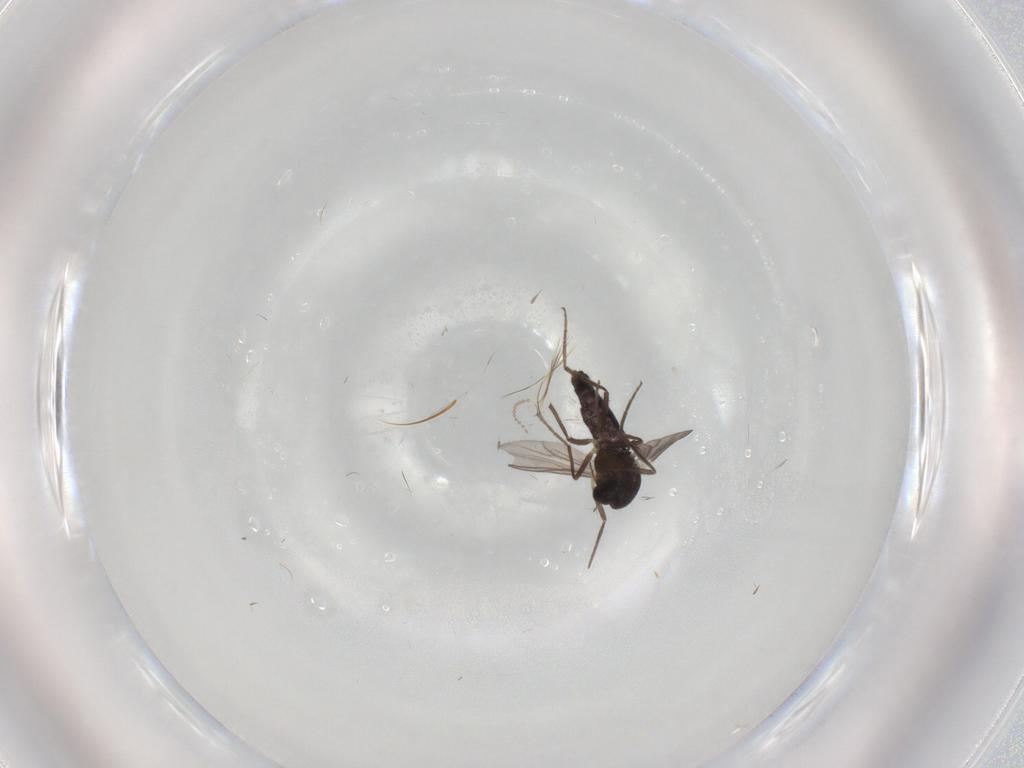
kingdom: Animalia
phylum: Arthropoda
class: Insecta
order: Diptera
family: Chironomidae
